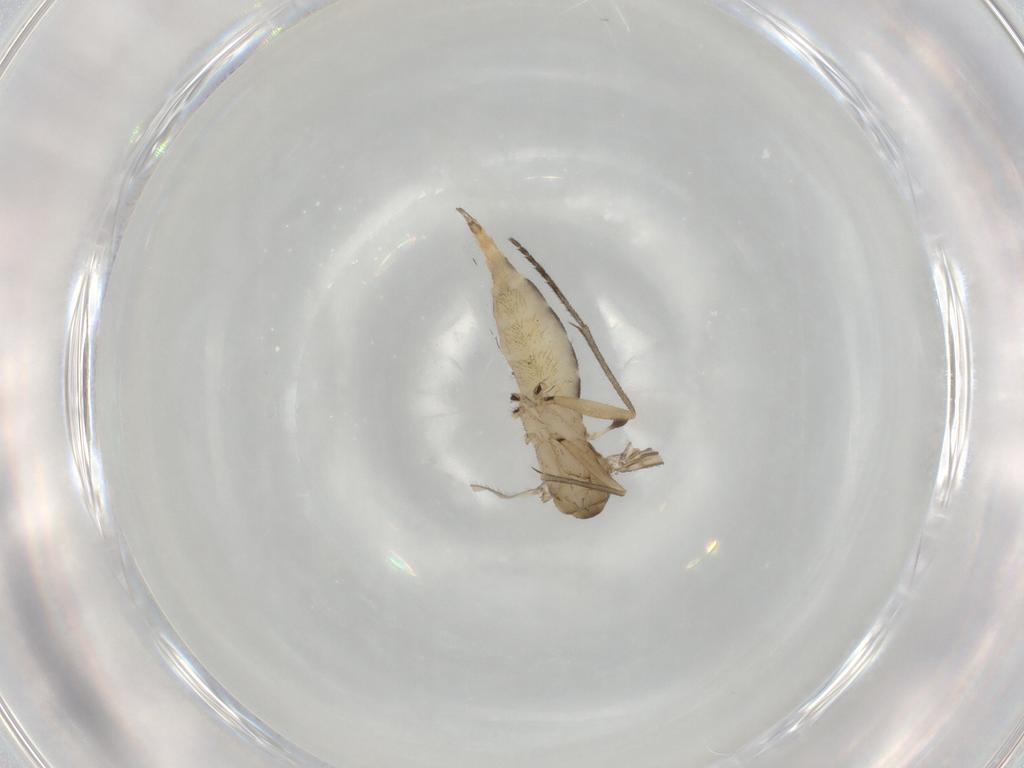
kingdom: Animalia
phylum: Arthropoda
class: Insecta
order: Diptera
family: Sciaridae
